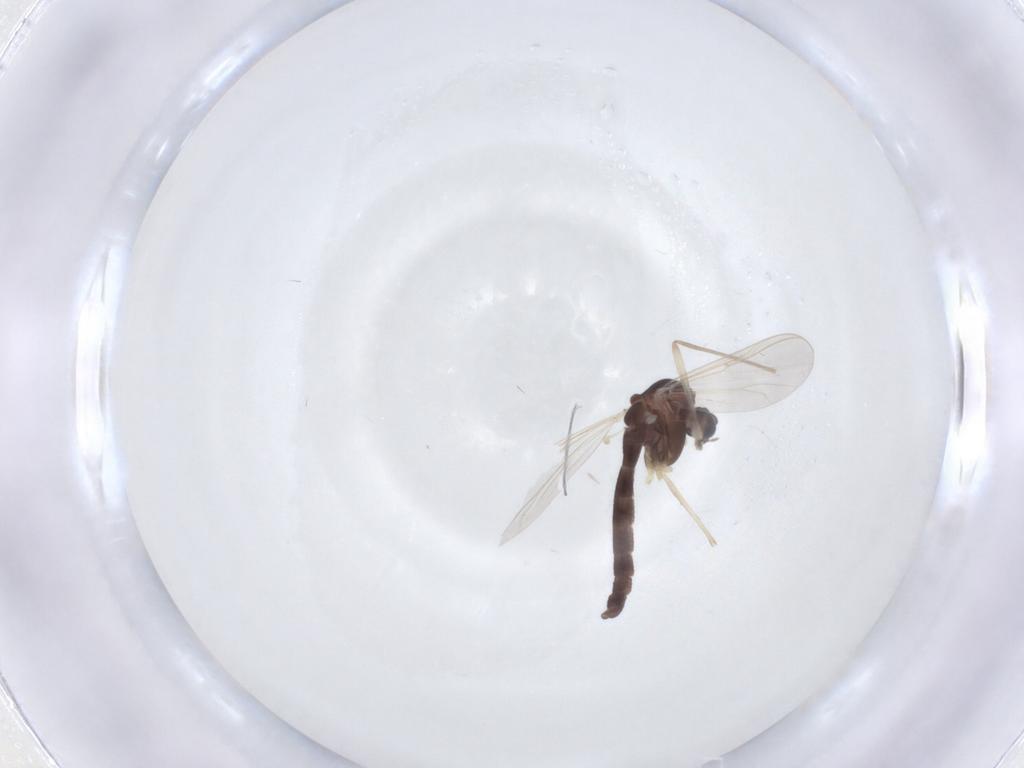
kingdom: Animalia
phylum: Arthropoda
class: Insecta
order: Diptera
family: Chironomidae
